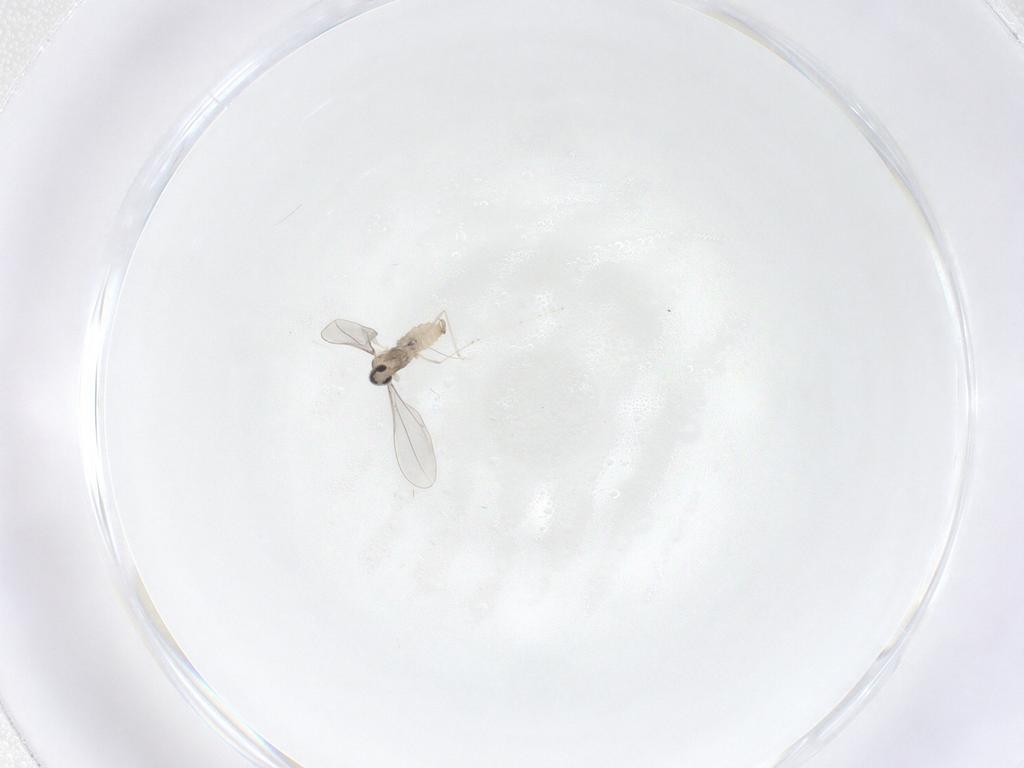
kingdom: Animalia
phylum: Arthropoda
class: Insecta
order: Diptera
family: Cecidomyiidae
